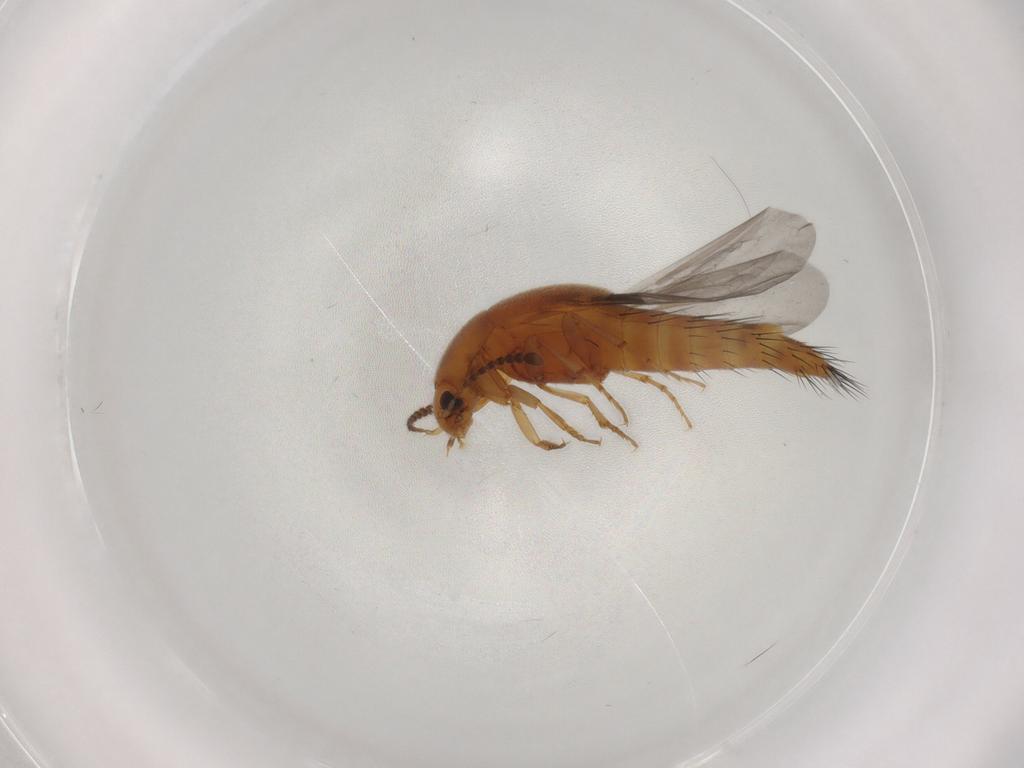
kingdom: Animalia
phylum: Arthropoda
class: Insecta
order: Coleoptera
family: Staphylinidae
